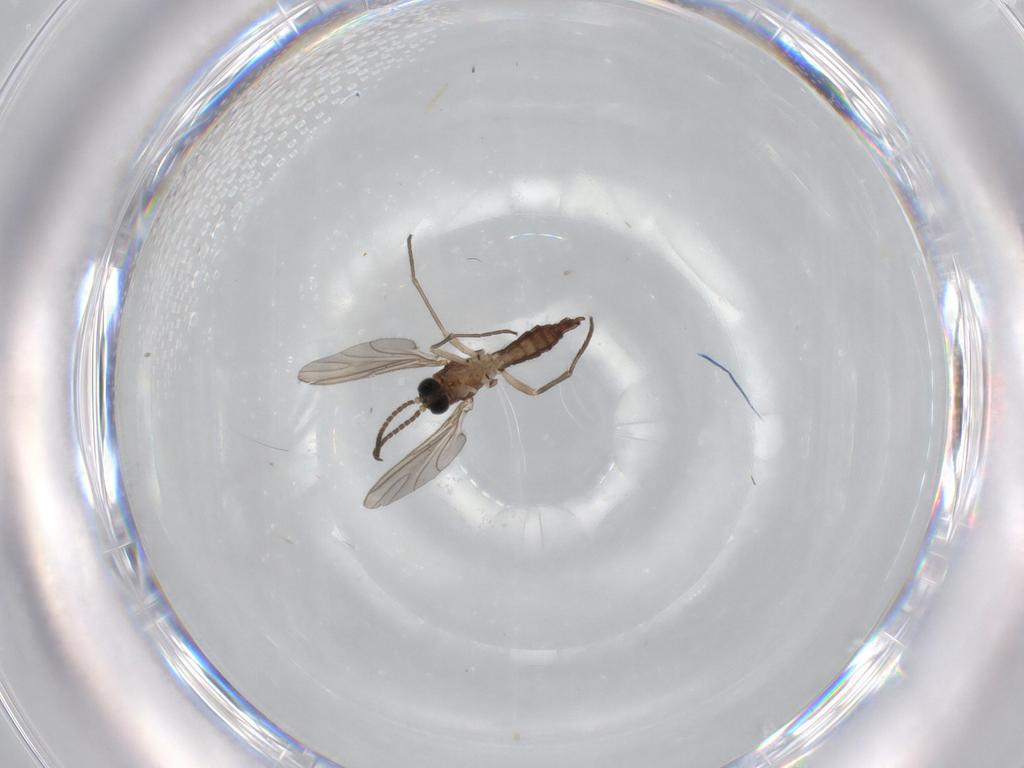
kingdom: Animalia
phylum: Arthropoda
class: Insecta
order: Diptera
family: Sciaridae
